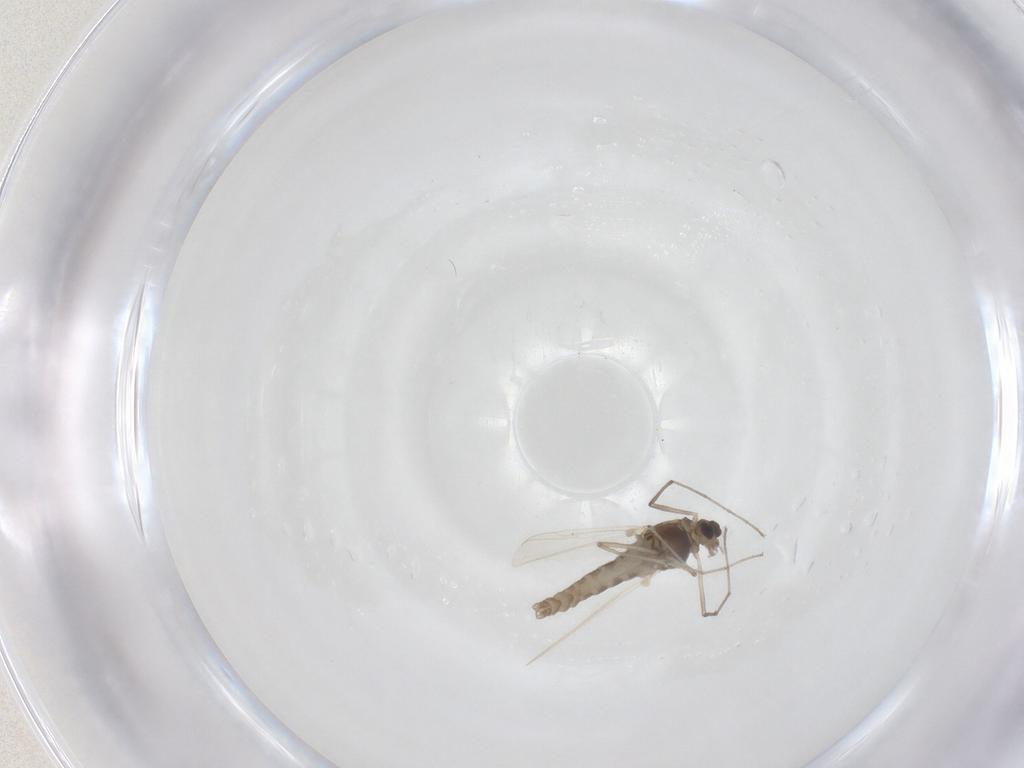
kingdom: Animalia
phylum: Arthropoda
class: Insecta
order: Diptera
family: Chironomidae
